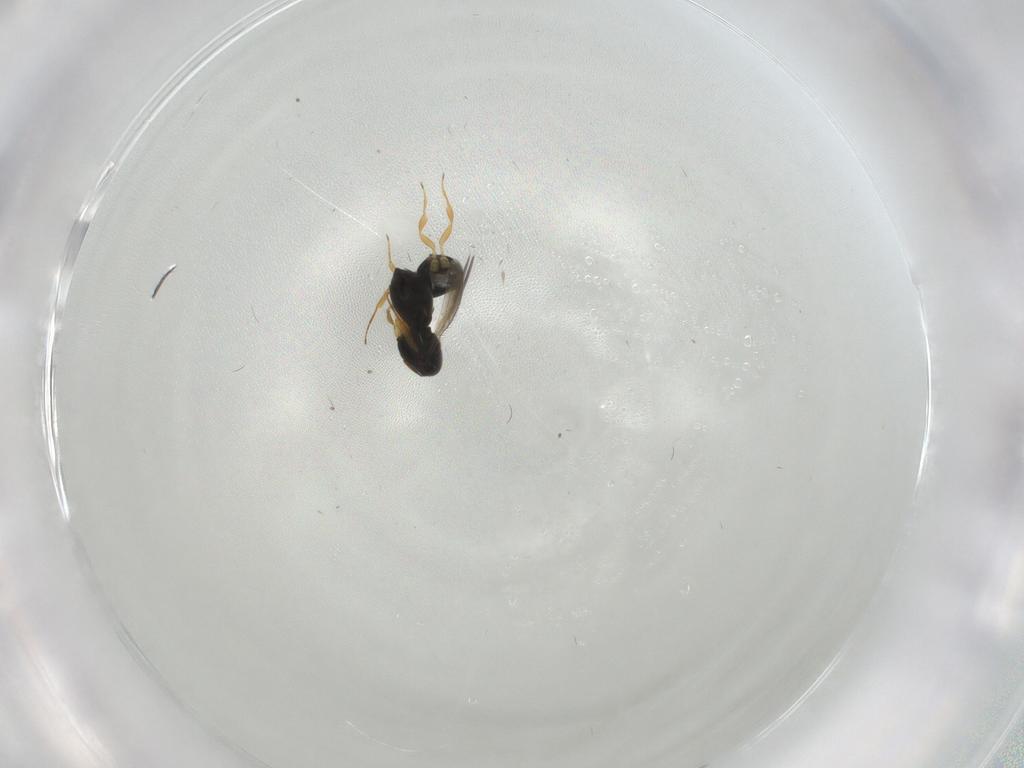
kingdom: Animalia
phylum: Arthropoda
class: Insecta
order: Hymenoptera
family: Scelionidae
